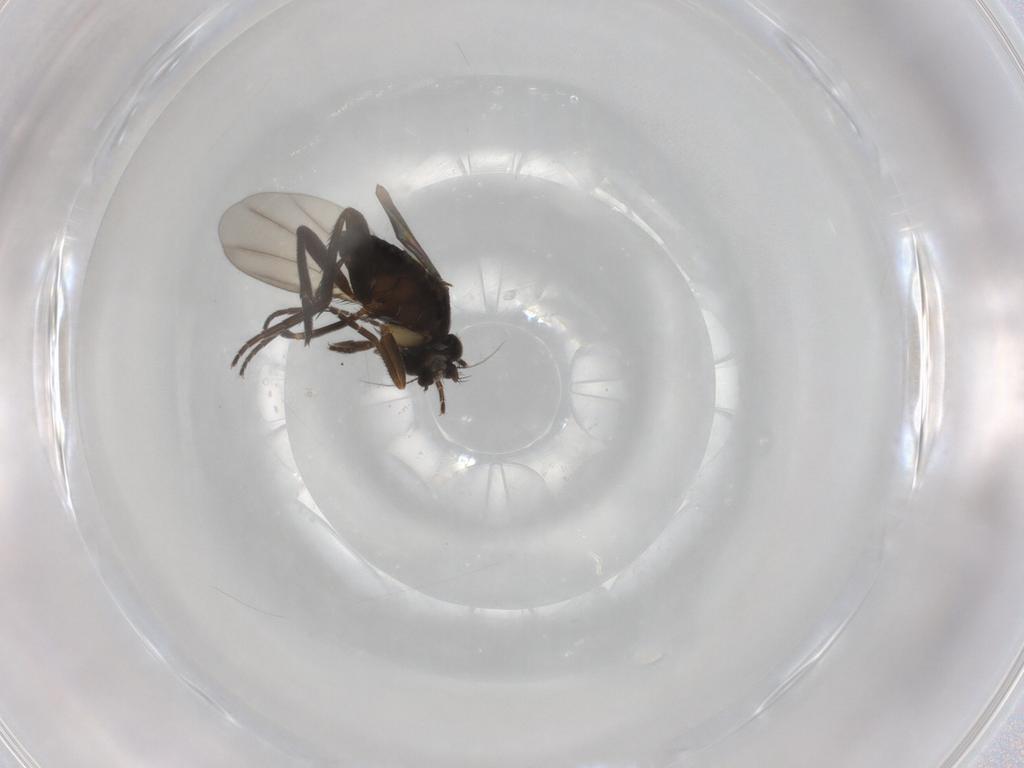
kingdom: Animalia
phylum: Arthropoda
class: Insecta
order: Diptera
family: Phoridae
